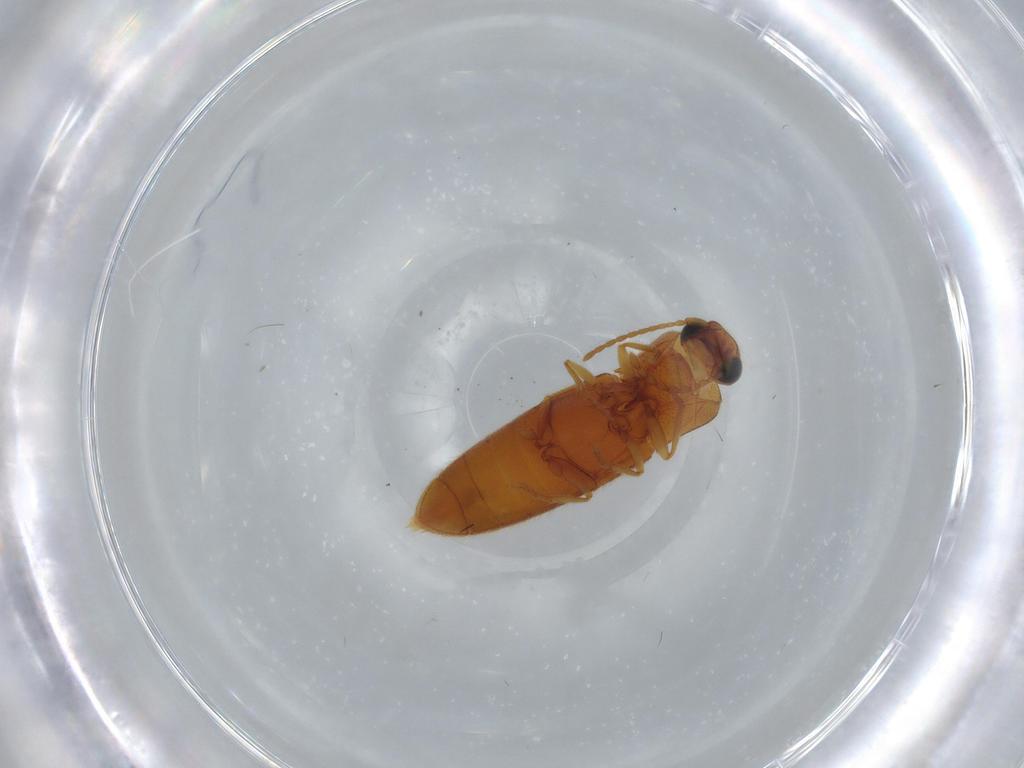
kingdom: Animalia
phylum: Arthropoda
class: Insecta
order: Coleoptera
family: Elateridae
